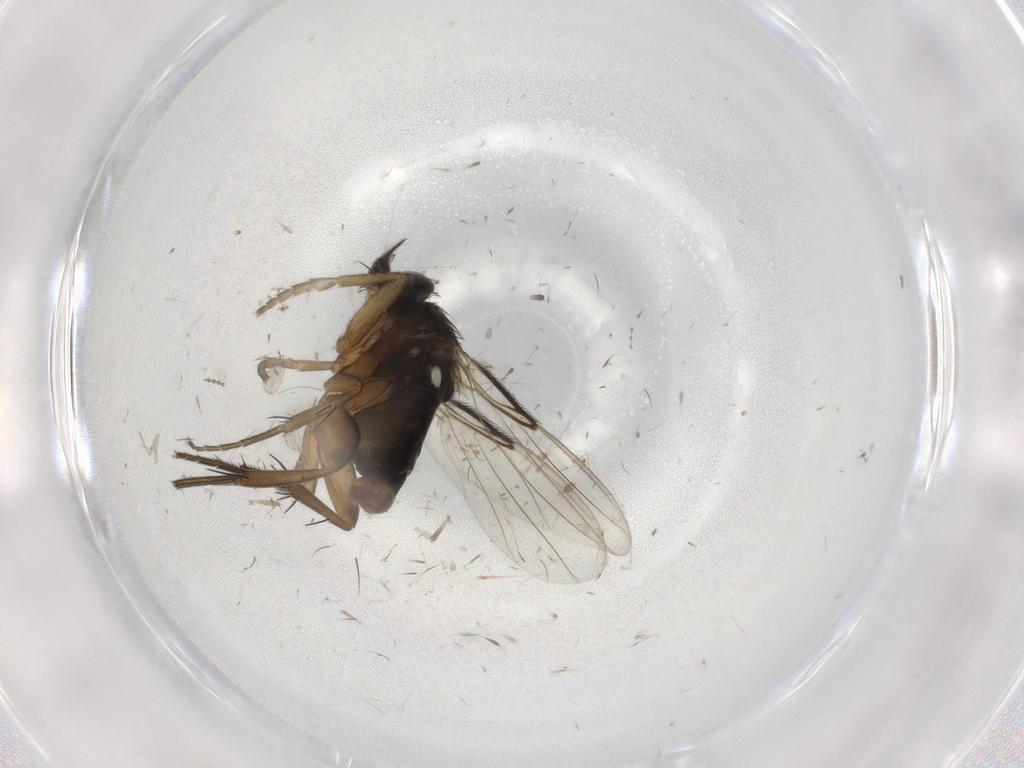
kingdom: Animalia
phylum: Arthropoda
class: Insecta
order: Diptera
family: Phoridae
